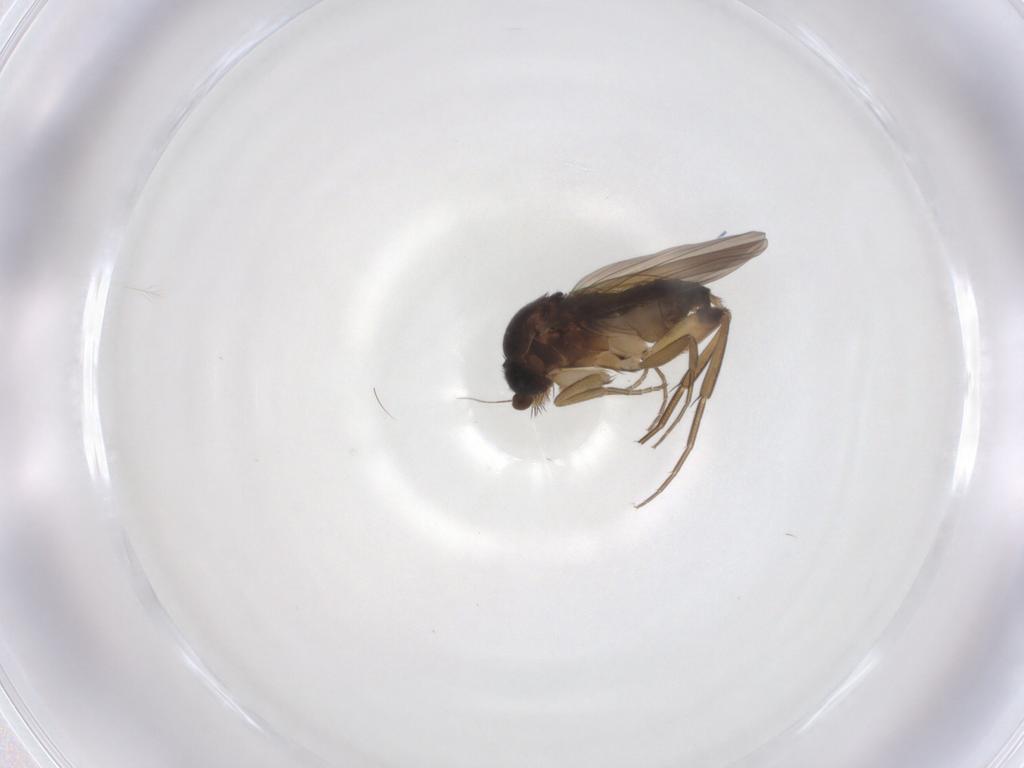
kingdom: Animalia
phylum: Arthropoda
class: Insecta
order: Diptera
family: Phoridae
